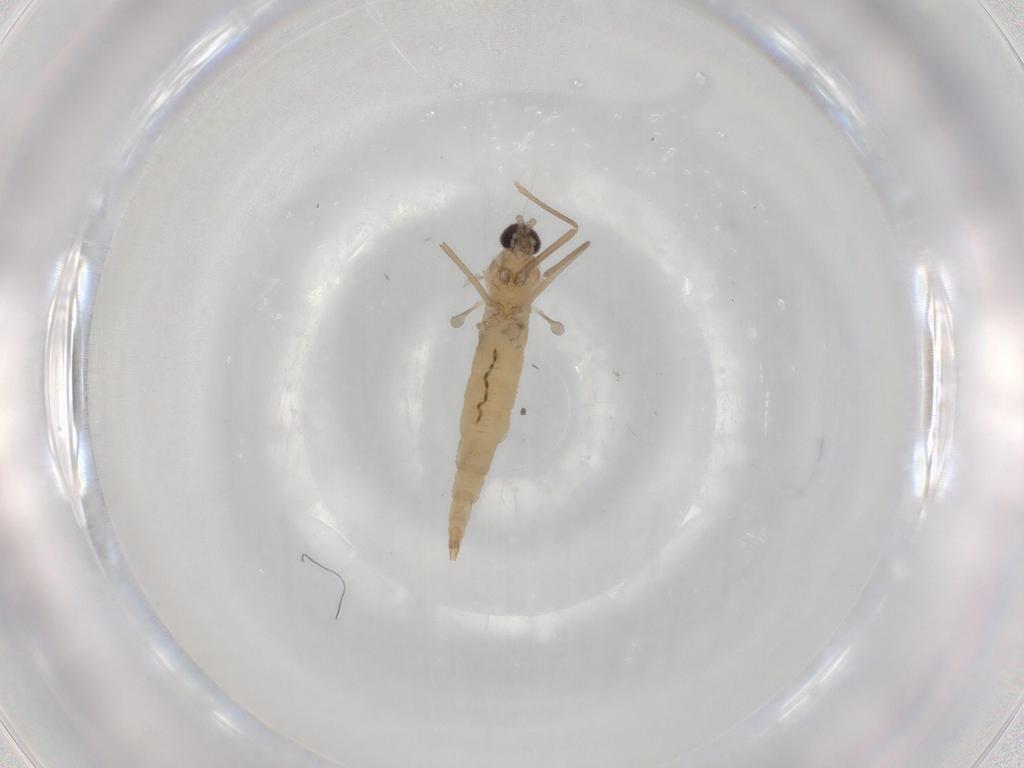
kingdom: Animalia
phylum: Arthropoda
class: Insecta
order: Diptera
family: Cecidomyiidae
